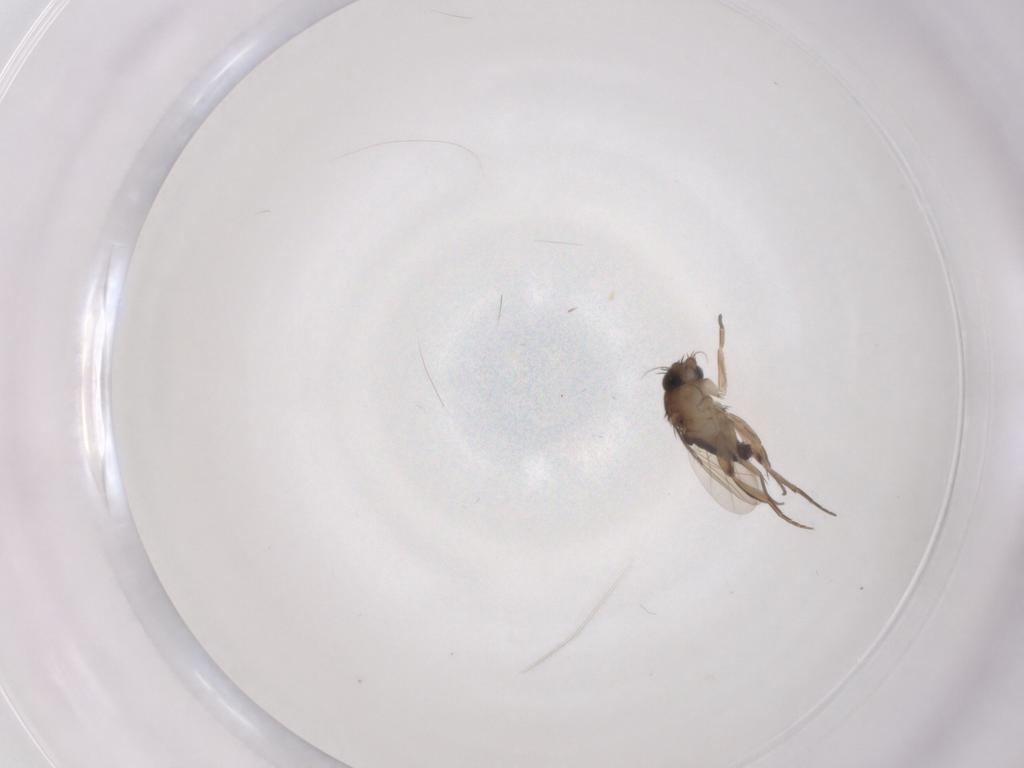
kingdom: Animalia
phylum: Arthropoda
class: Insecta
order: Diptera
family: Phoridae
